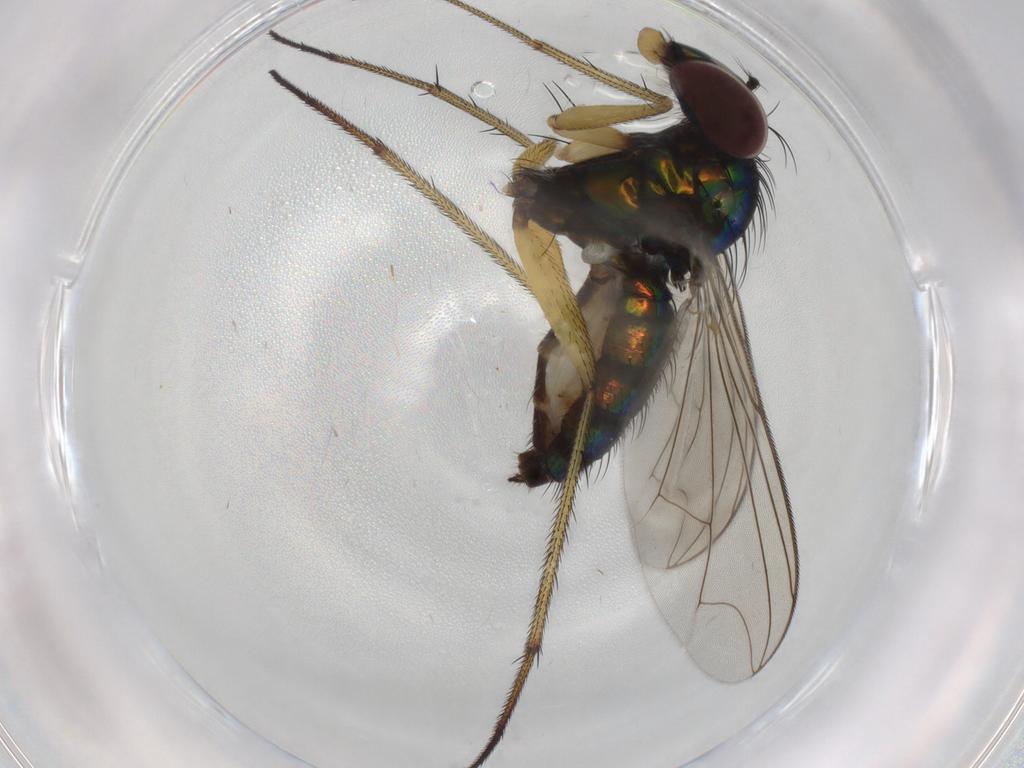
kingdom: Animalia
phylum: Arthropoda
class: Insecta
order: Diptera
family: Dolichopodidae
